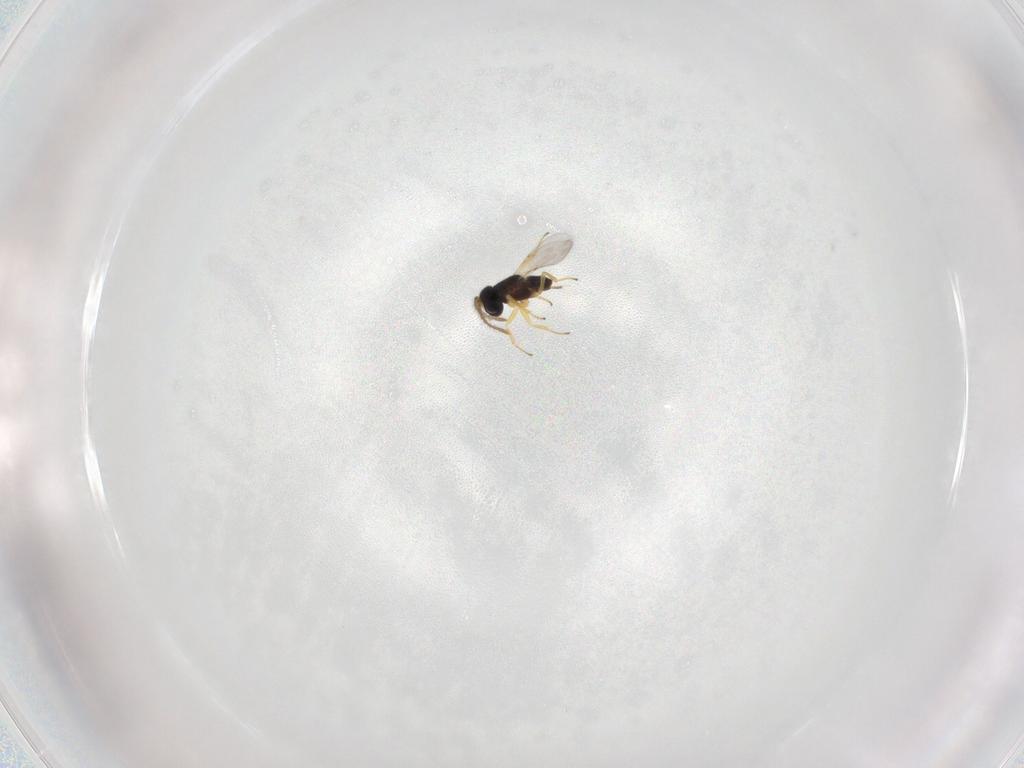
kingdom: Animalia
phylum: Arthropoda
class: Insecta
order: Hymenoptera
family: Scelionidae
